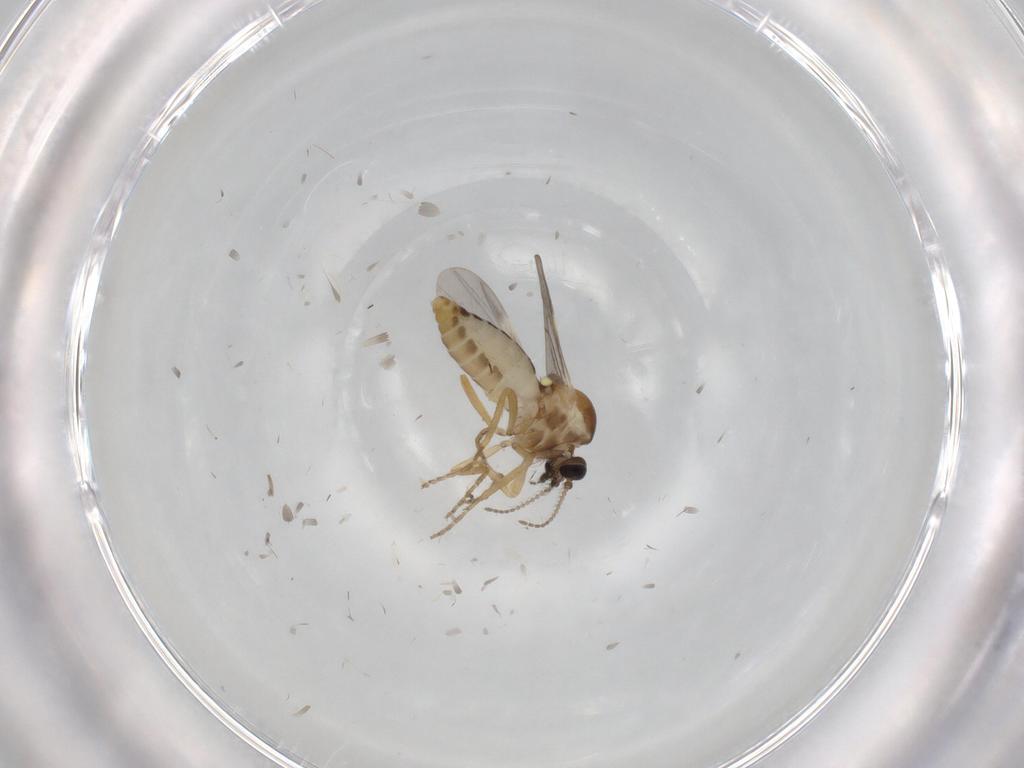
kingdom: Animalia
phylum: Arthropoda
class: Insecta
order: Diptera
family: Ceratopogonidae
